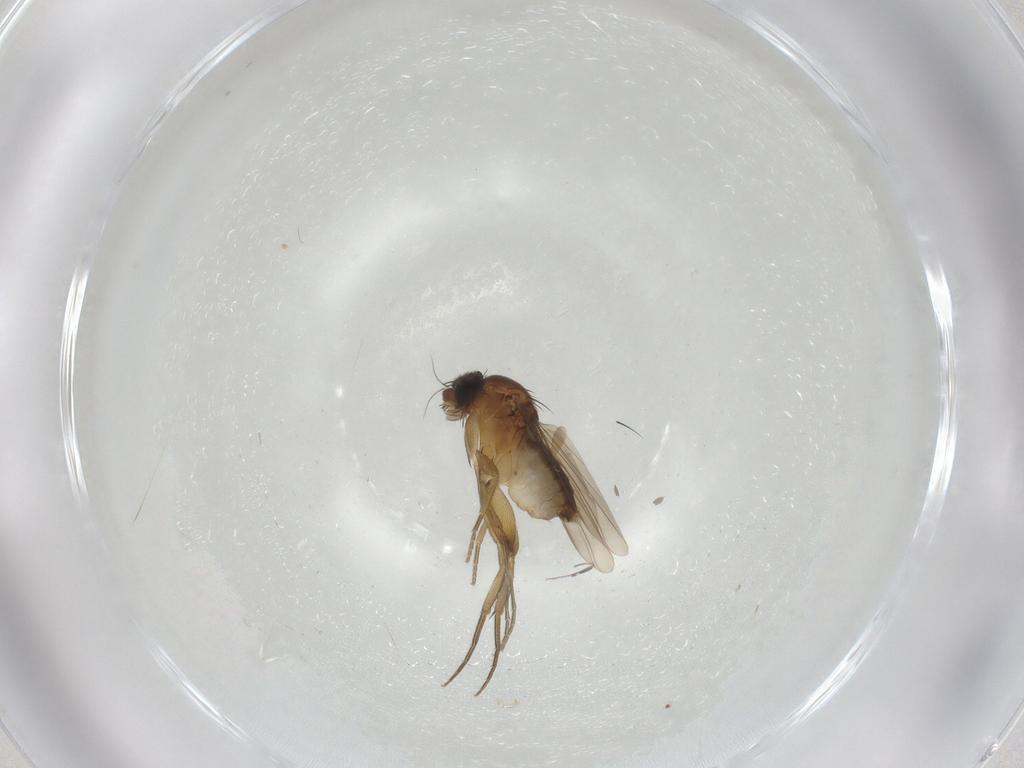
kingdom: Animalia
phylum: Arthropoda
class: Insecta
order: Diptera
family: Phoridae
